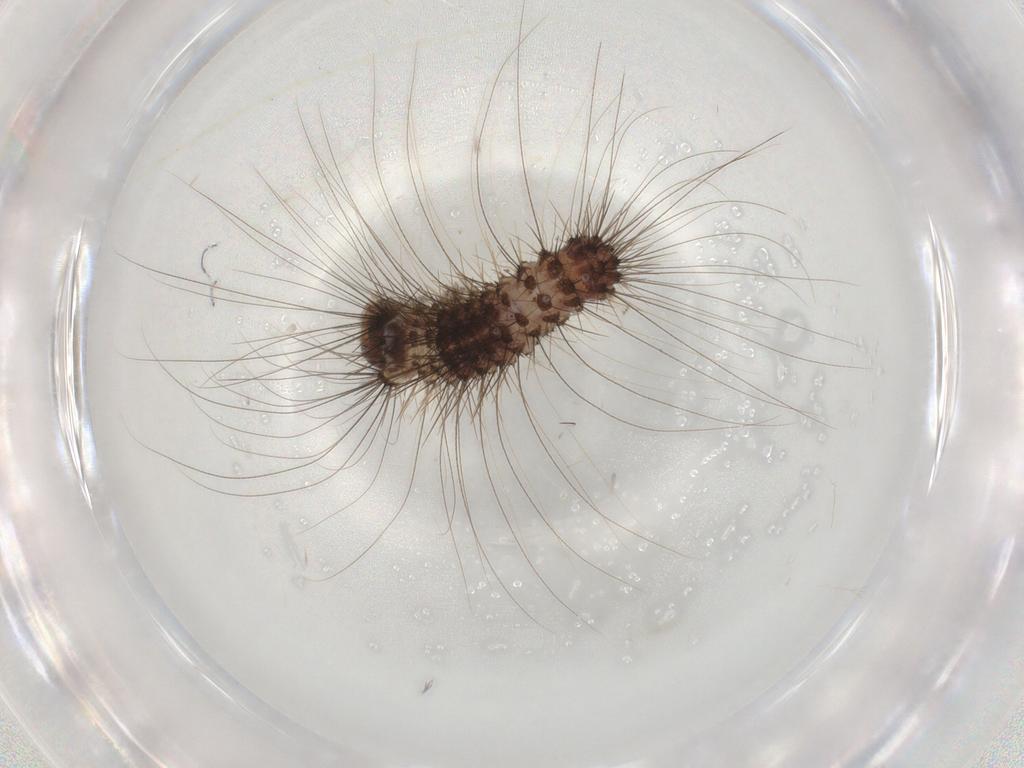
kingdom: Animalia
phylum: Arthropoda
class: Insecta
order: Lepidoptera
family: Scythrididae
